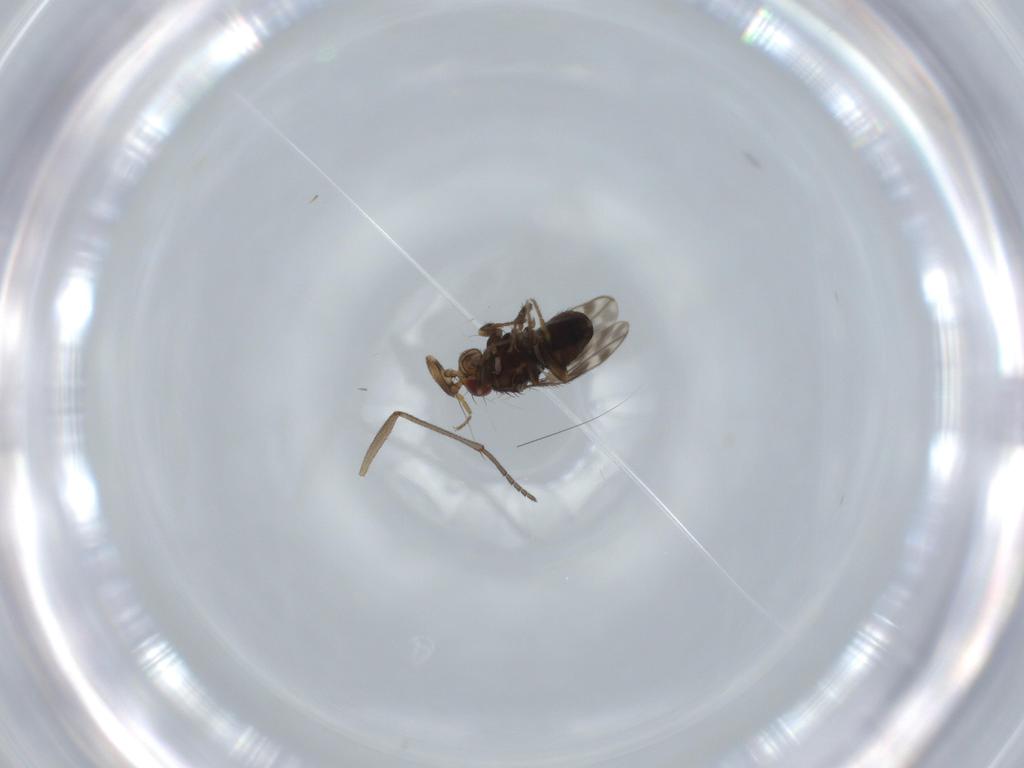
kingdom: Animalia
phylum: Arthropoda
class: Insecta
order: Diptera
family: Sphaeroceridae
